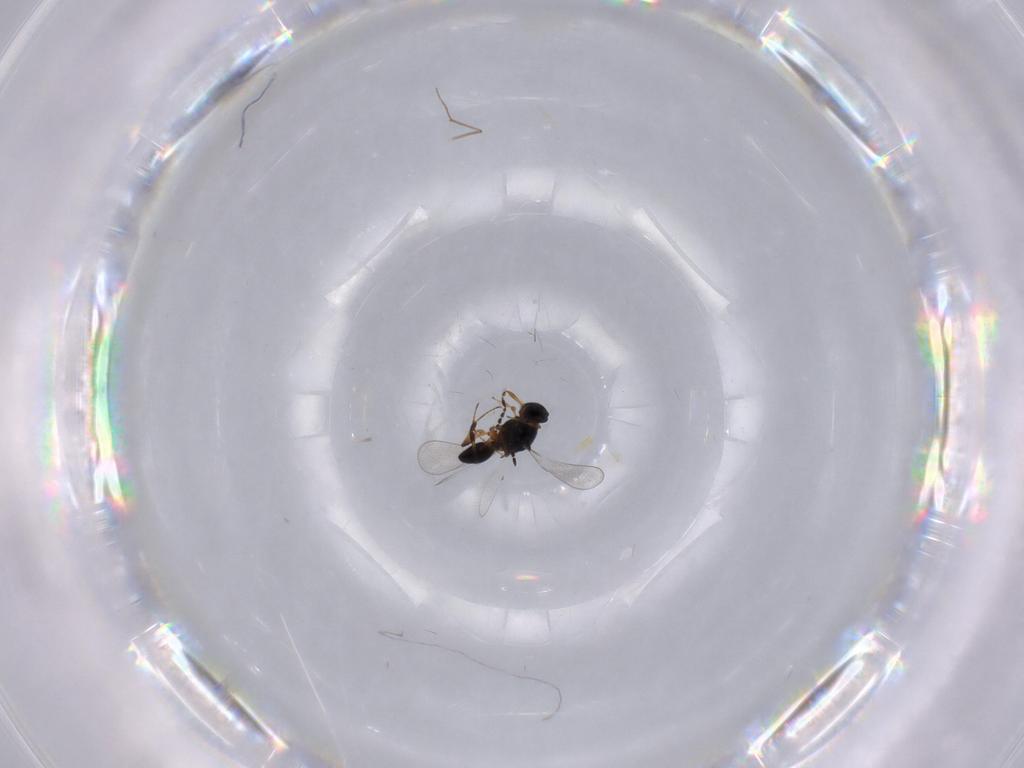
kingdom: Animalia
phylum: Arthropoda
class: Insecta
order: Hymenoptera
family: Platygastridae
